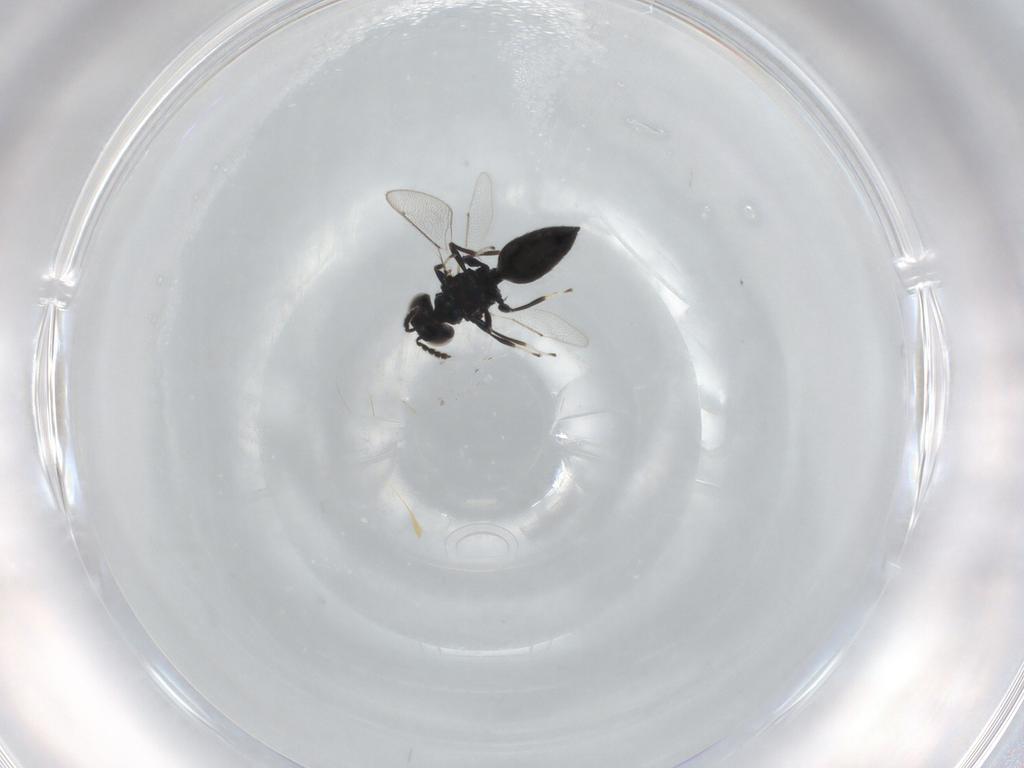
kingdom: Animalia
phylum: Arthropoda
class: Insecta
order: Hymenoptera
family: Eulophidae
